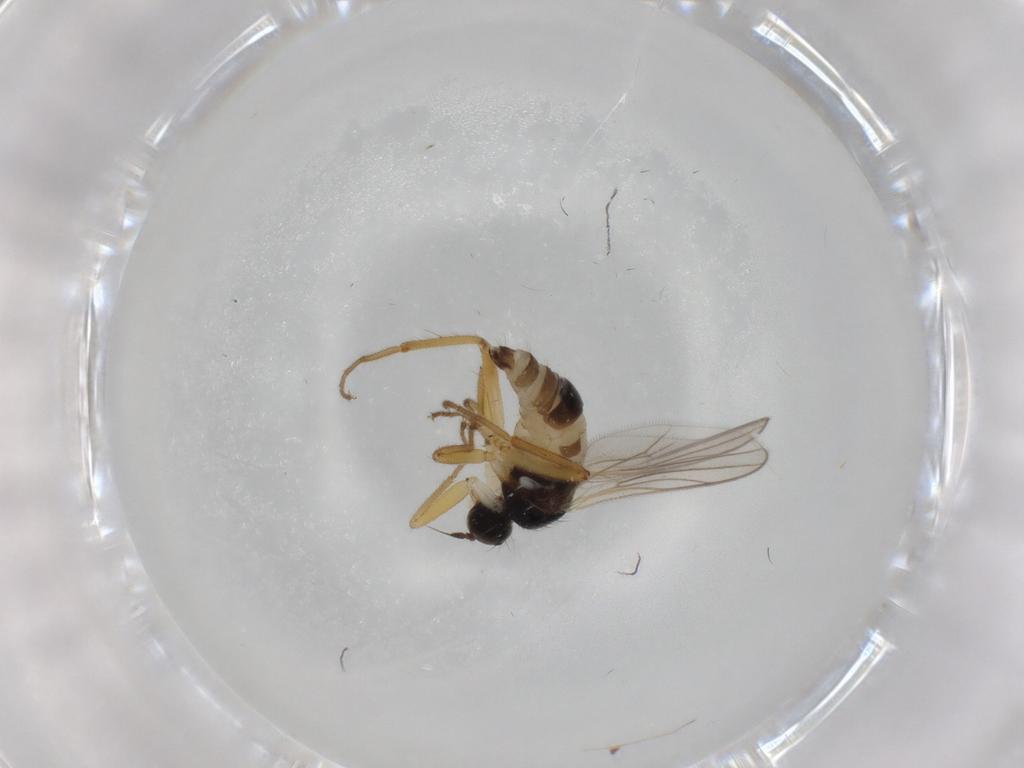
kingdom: Animalia
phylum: Arthropoda
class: Insecta
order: Diptera
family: Hybotidae
